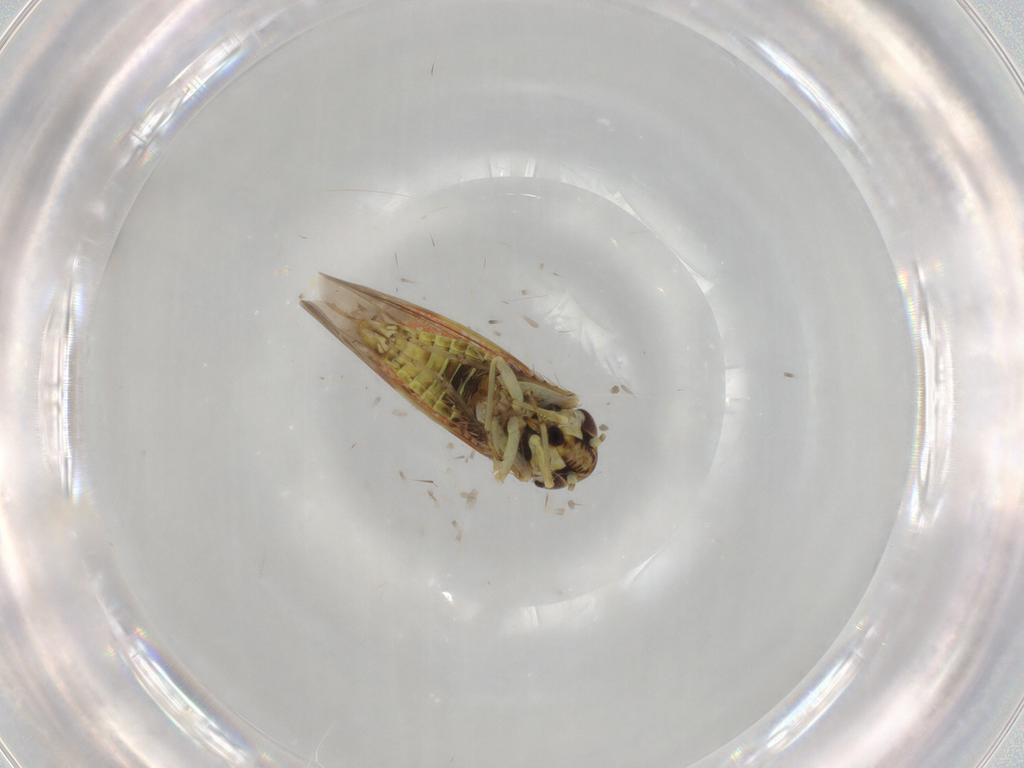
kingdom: Animalia
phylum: Arthropoda
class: Insecta
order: Hemiptera
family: Cicadellidae
